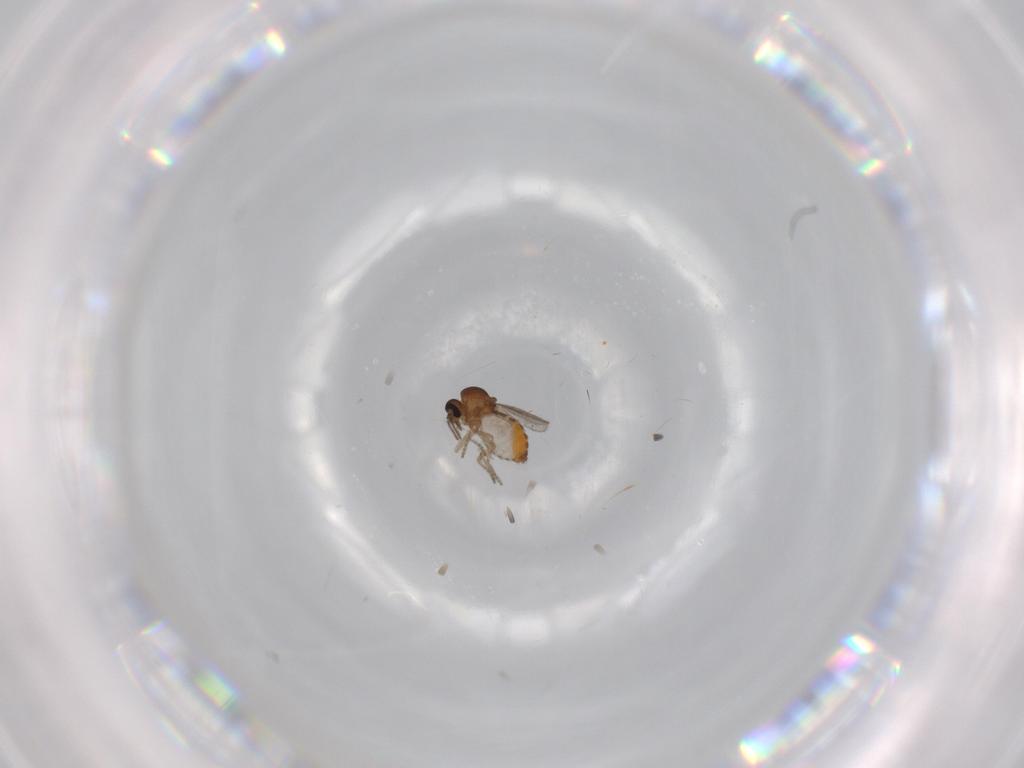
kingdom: Animalia
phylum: Arthropoda
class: Insecta
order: Diptera
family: Ceratopogonidae
